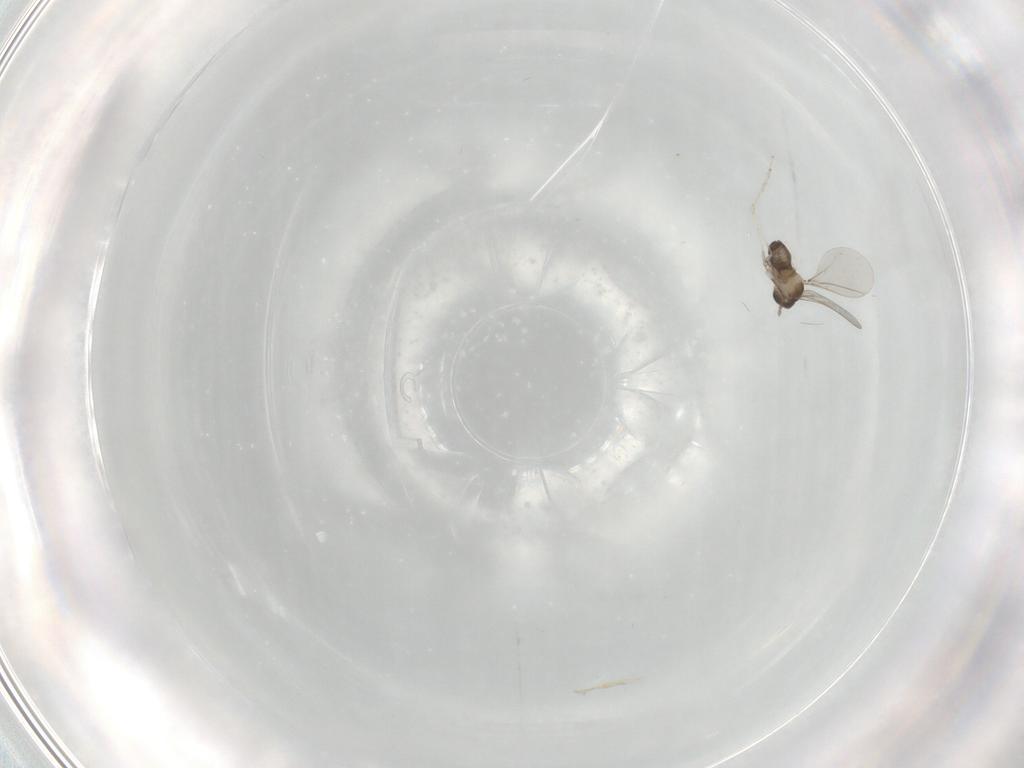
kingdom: Animalia
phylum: Arthropoda
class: Insecta
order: Diptera
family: Cecidomyiidae
